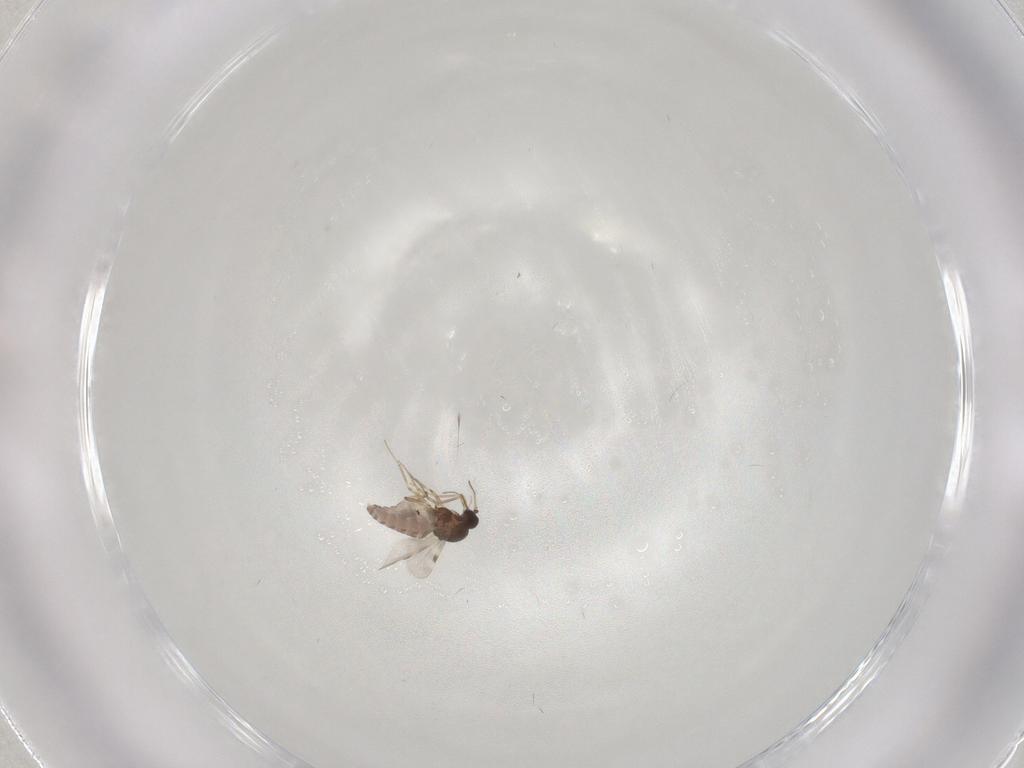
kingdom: Animalia
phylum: Arthropoda
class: Insecta
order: Diptera
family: Sciaridae
